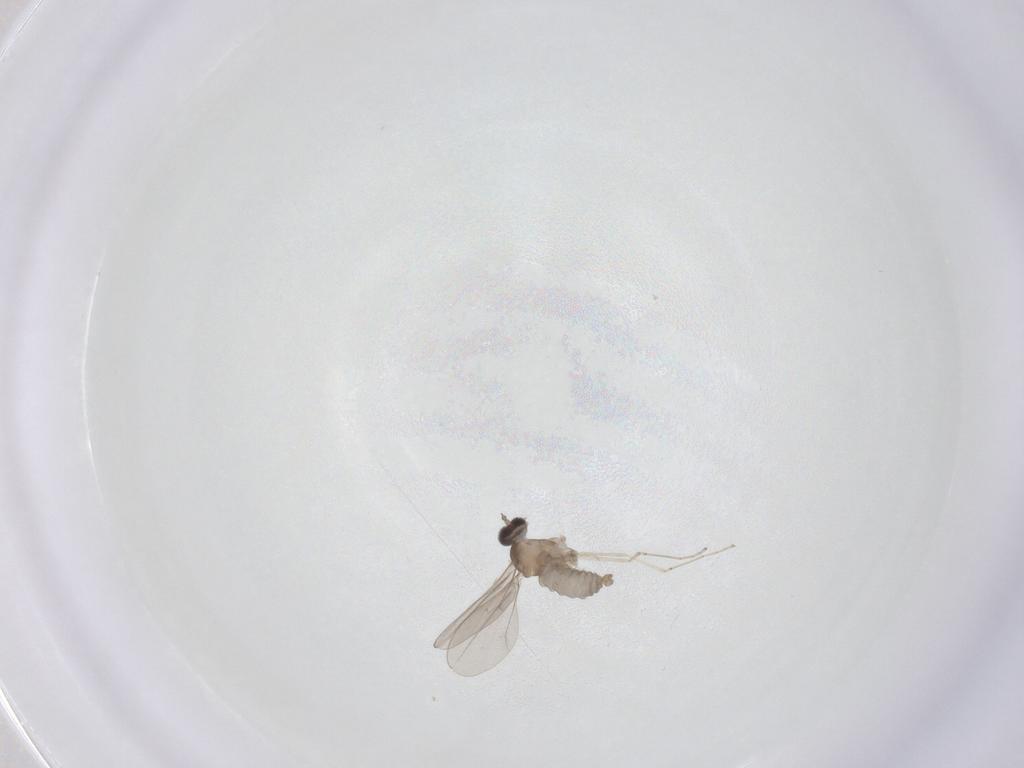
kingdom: Animalia
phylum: Arthropoda
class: Insecta
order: Diptera
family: Sciaridae
